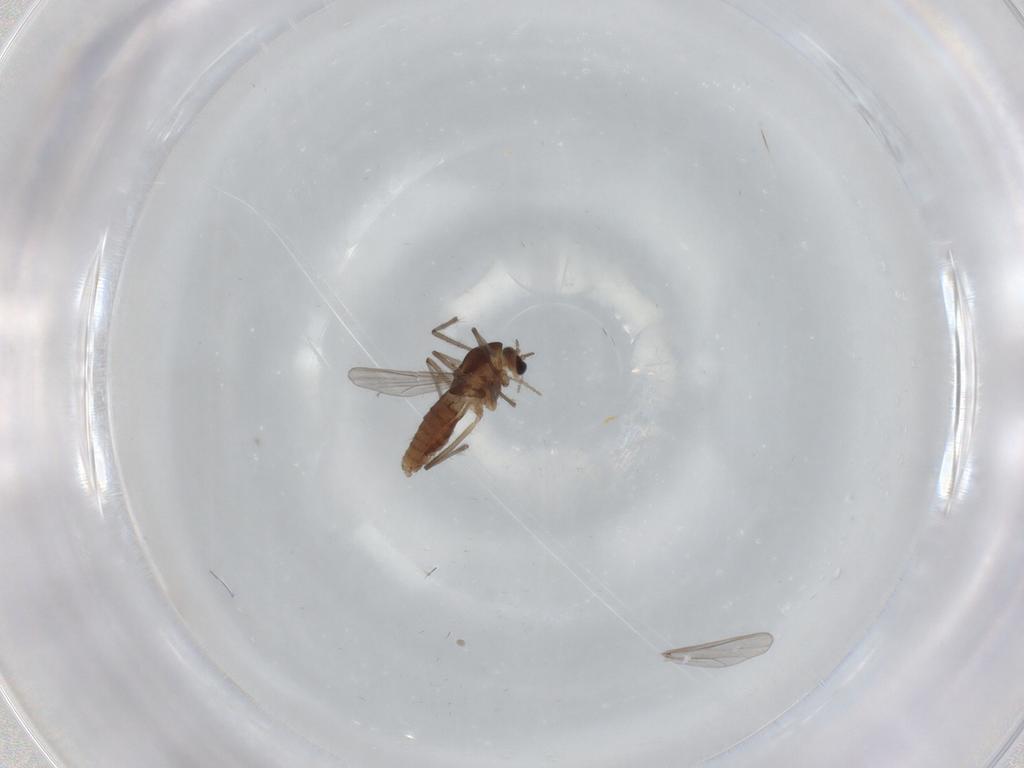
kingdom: Animalia
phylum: Arthropoda
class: Insecta
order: Diptera
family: Chironomidae
